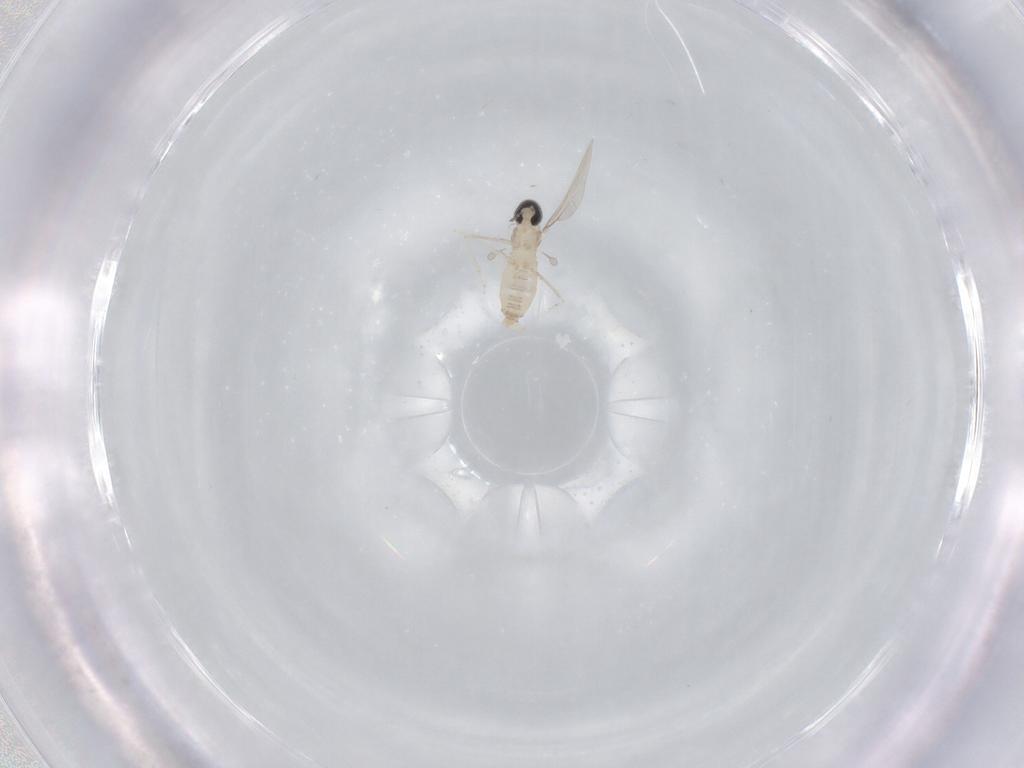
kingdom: Animalia
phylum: Arthropoda
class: Insecta
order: Diptera
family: Cecidomyiidae
